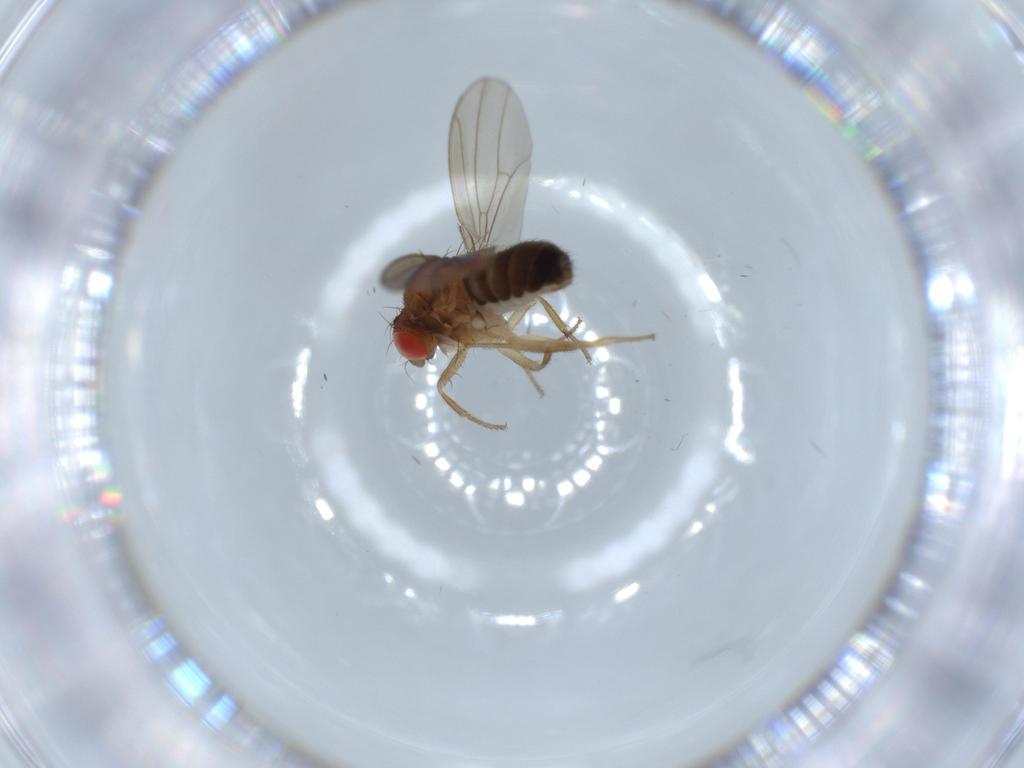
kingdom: Animalia
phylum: Arthropoda
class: Insecta
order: Diptera
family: Drosophilidae
